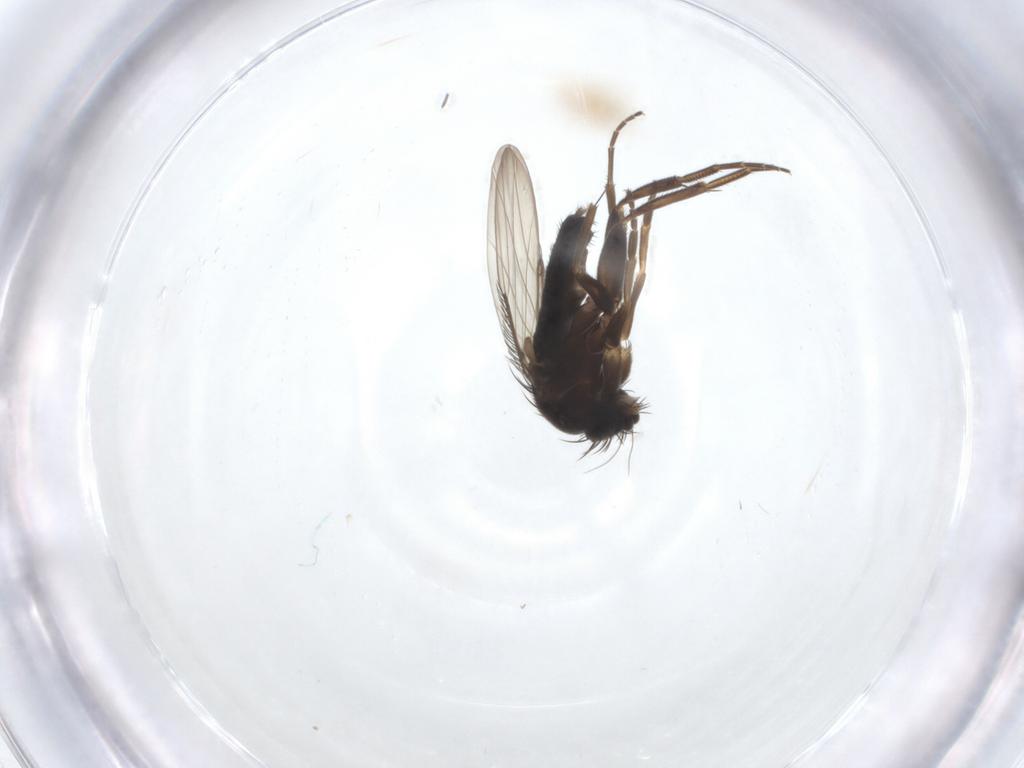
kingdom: Animalia
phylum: Arthropoda
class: Insecta
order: Diptera
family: Phoridae
